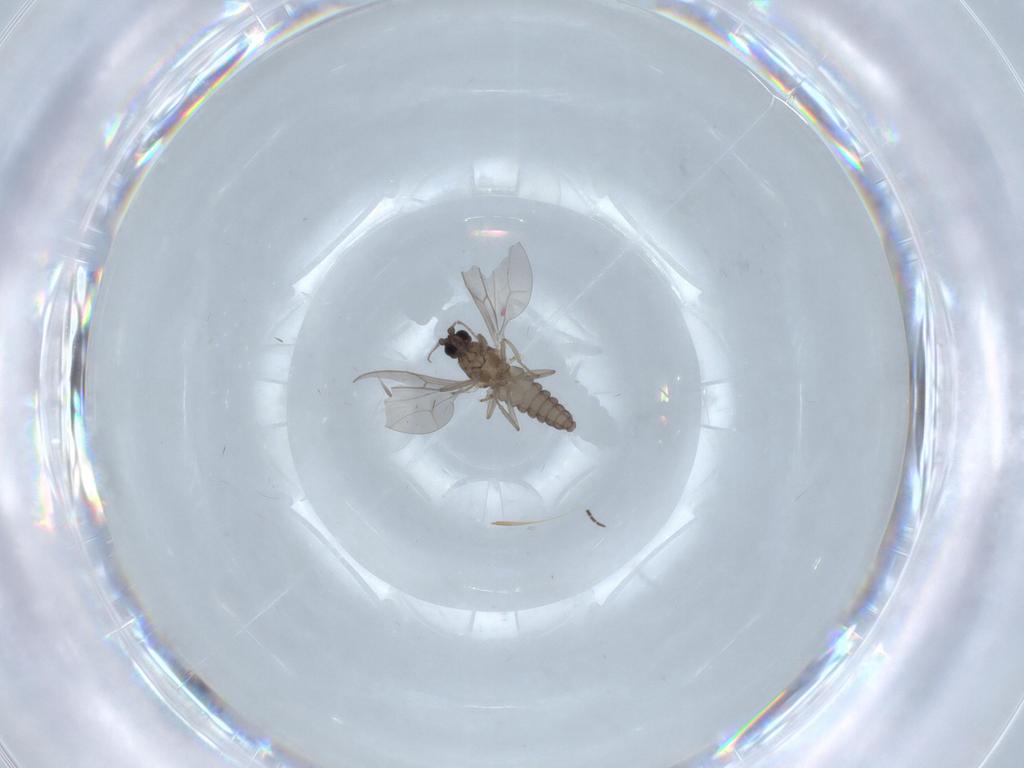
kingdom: Animalia
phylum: Arthropoda
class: Insecta
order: Diptera
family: Cecidomyiidae
